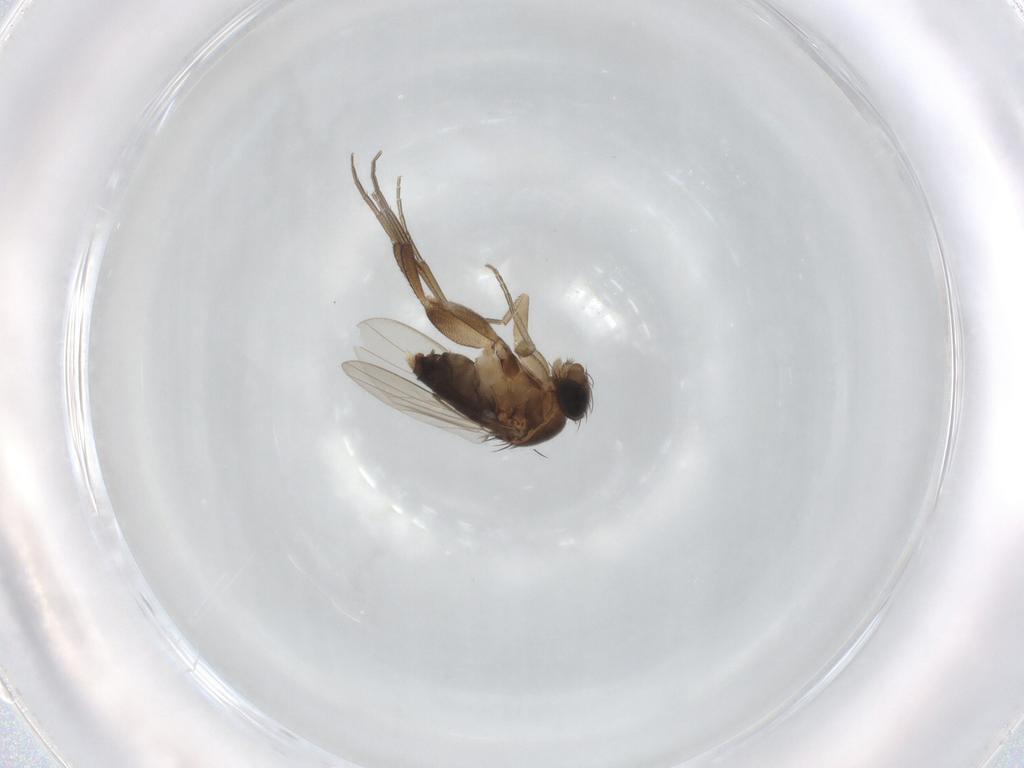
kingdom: Animalia
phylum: Arthropoda
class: Insecta
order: Diptera
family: Phoridae
